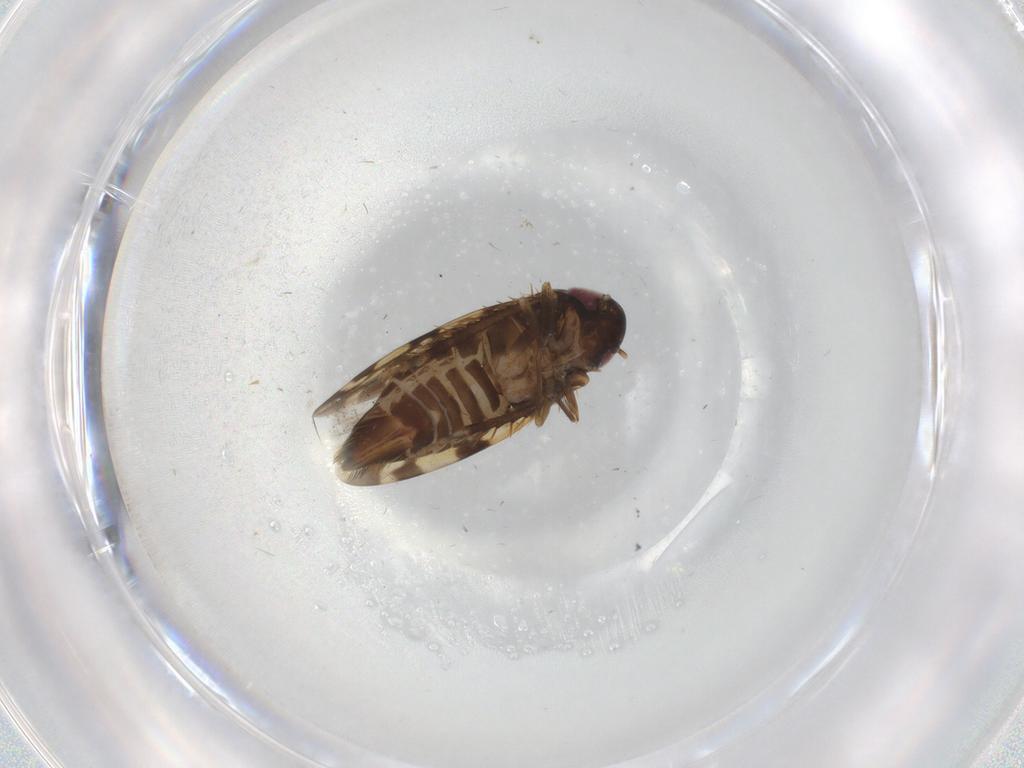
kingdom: Animalia
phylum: Arthropoda
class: Insecta
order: Hemiptera
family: Cicadellidae
